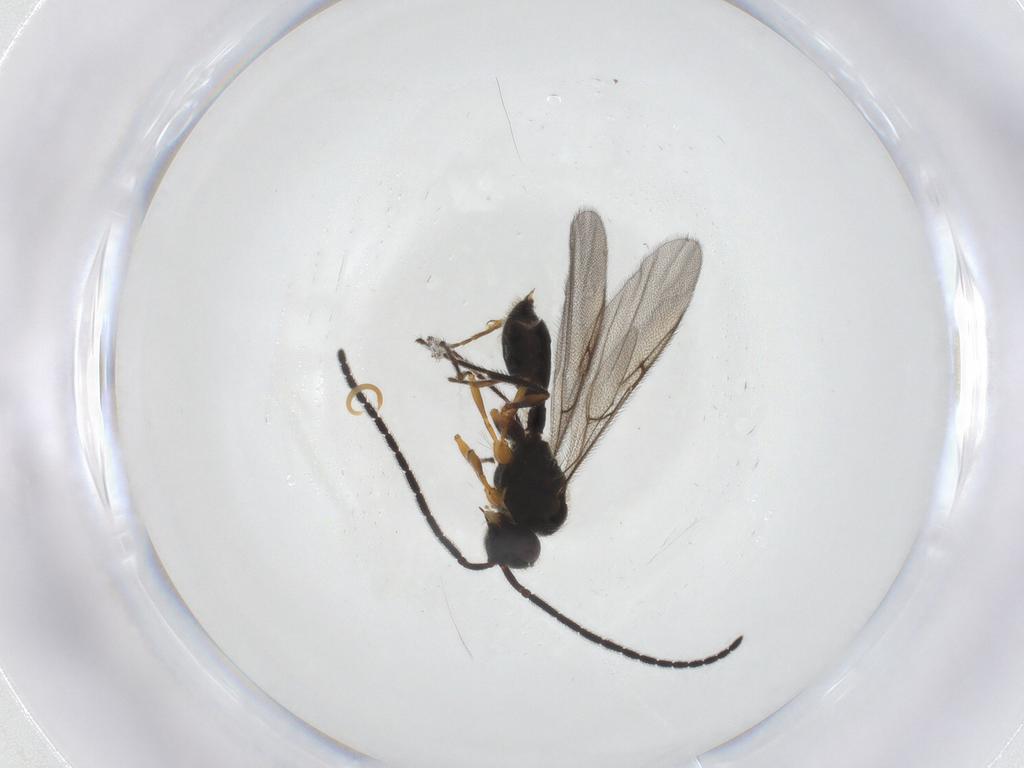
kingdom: Animalia
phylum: Arthropoda
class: Insecta
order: Hymenoptera
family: Diapriidae
